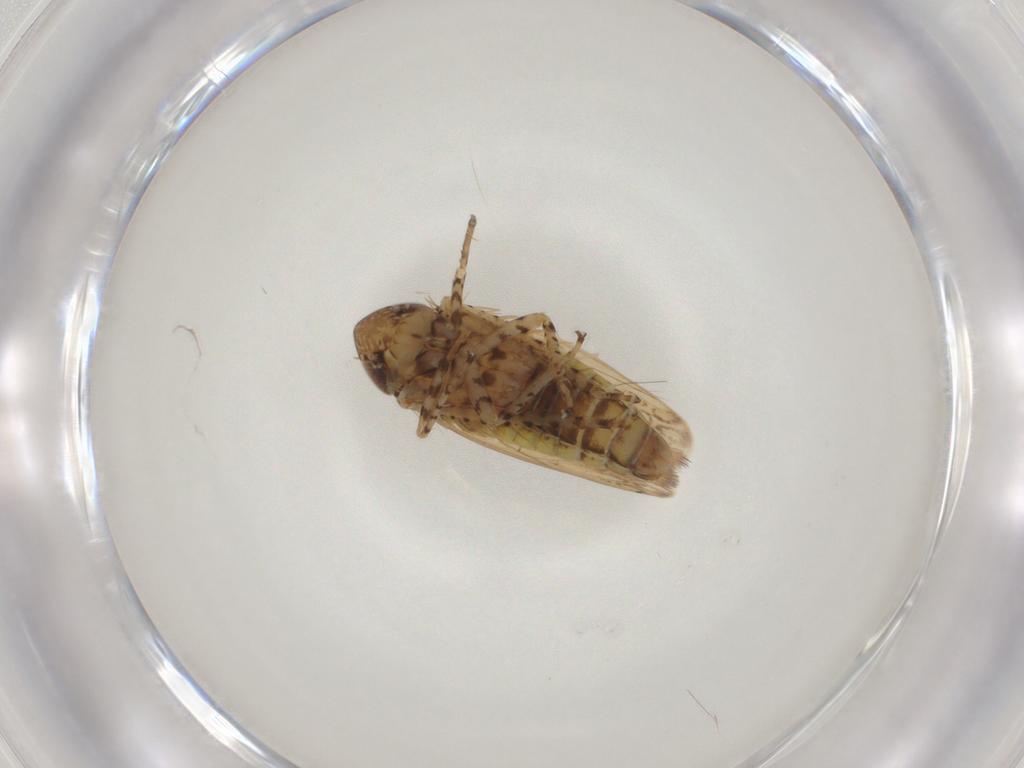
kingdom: Animalia
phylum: Arthropoda
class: Insecta
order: Hemiptera
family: Cicadellidae
